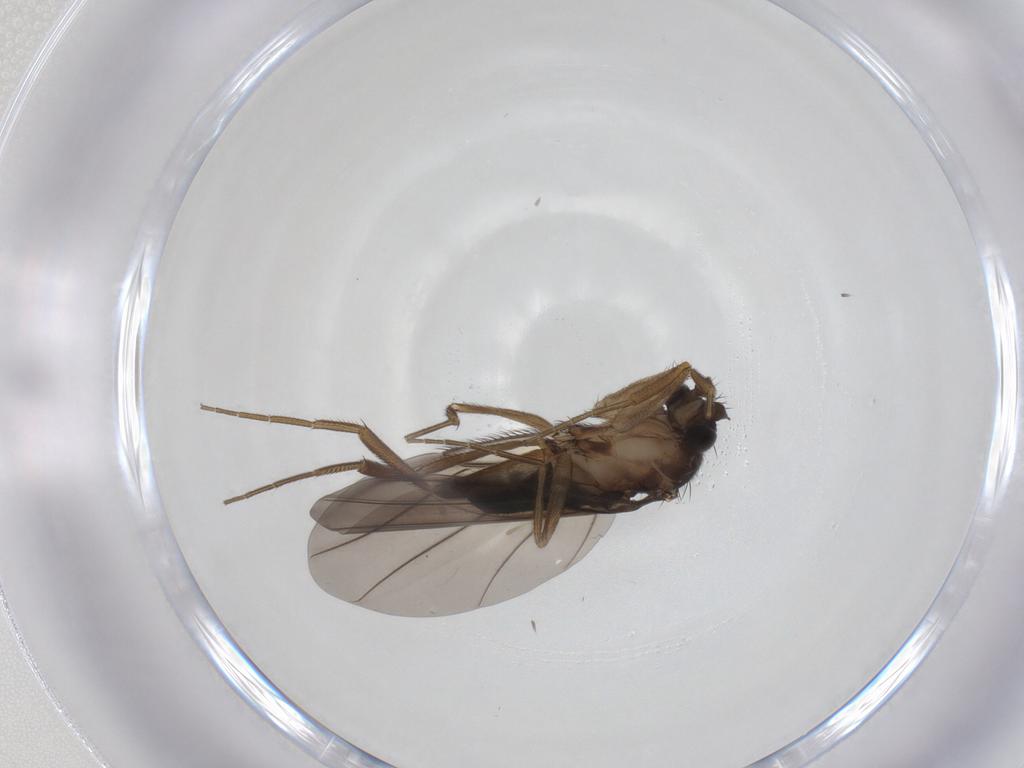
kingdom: Animalia
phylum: Arthropoda
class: Insecta
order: Diptera
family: Phoridae
